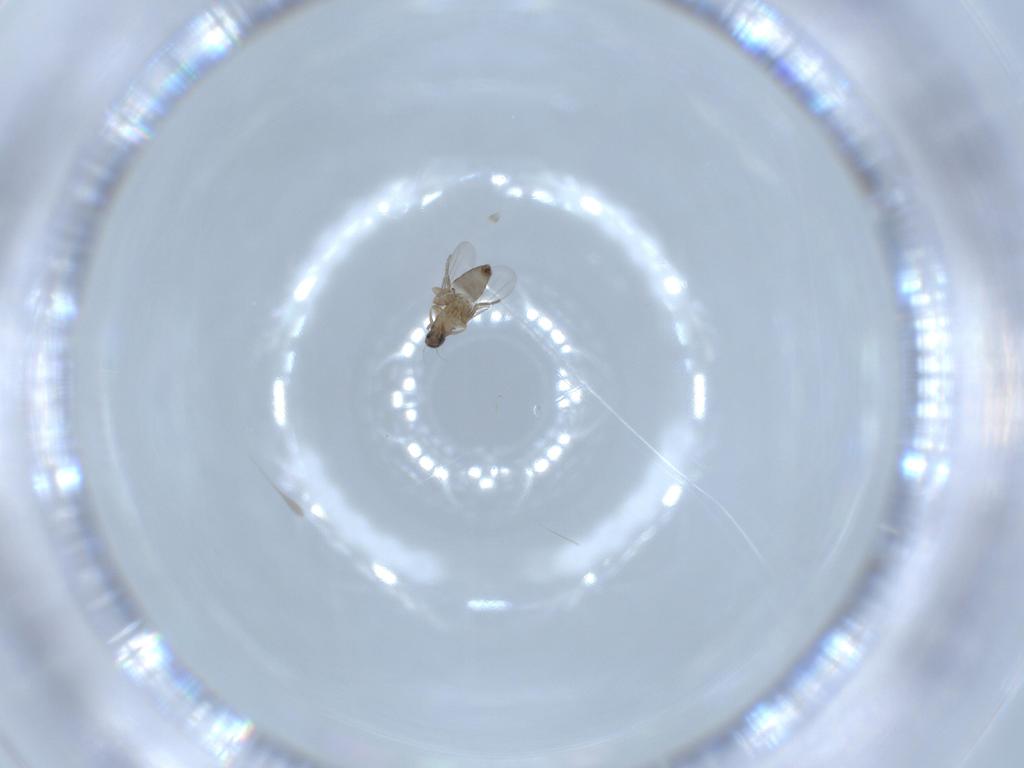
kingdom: Animalia
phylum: Arthropoda
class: Insecta
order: Diptera
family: Phoridae
